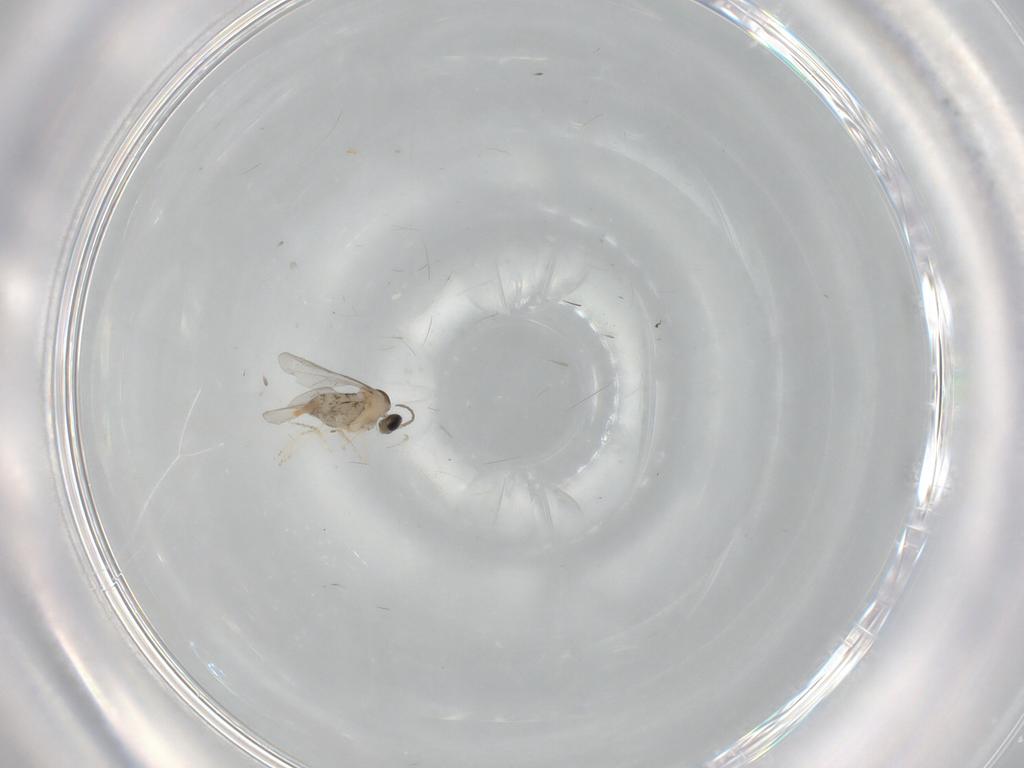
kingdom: Animalia
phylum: Arthropoda
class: Insecta
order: Diptera
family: Cecidomyiidae
